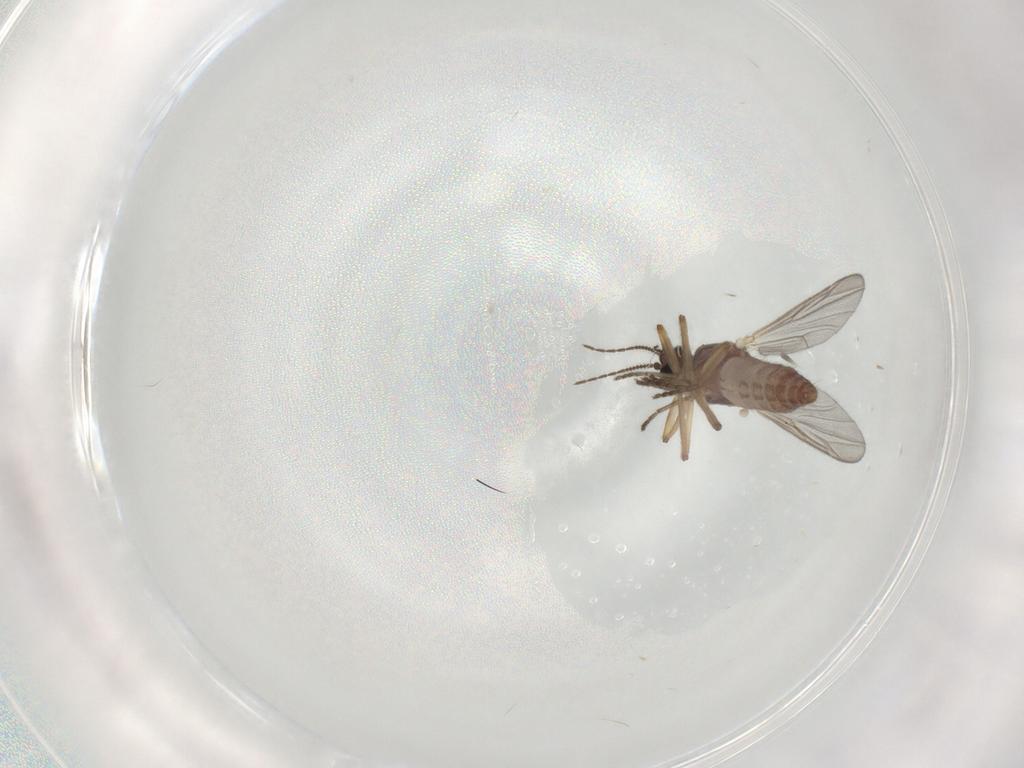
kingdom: Animalia
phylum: Arthropoda
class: Insecta
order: Diptera
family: Ceratopogonidae
